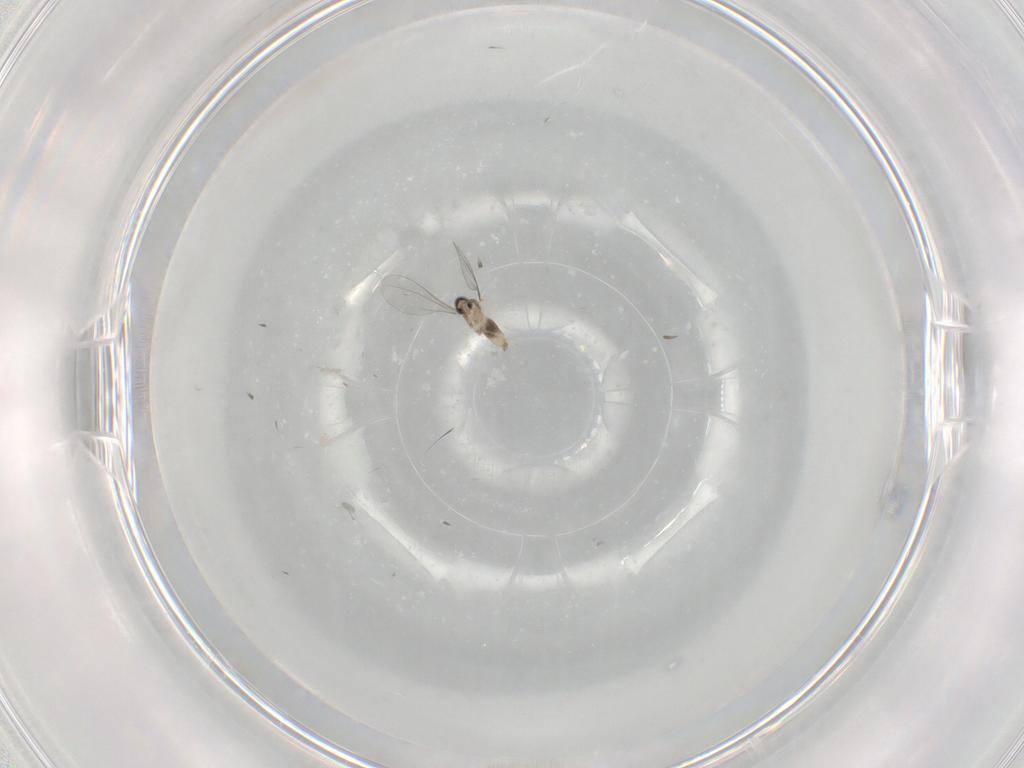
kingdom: Animalia
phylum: Arthropoda
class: Insecta
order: Diptera
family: Cecidomyiidae
